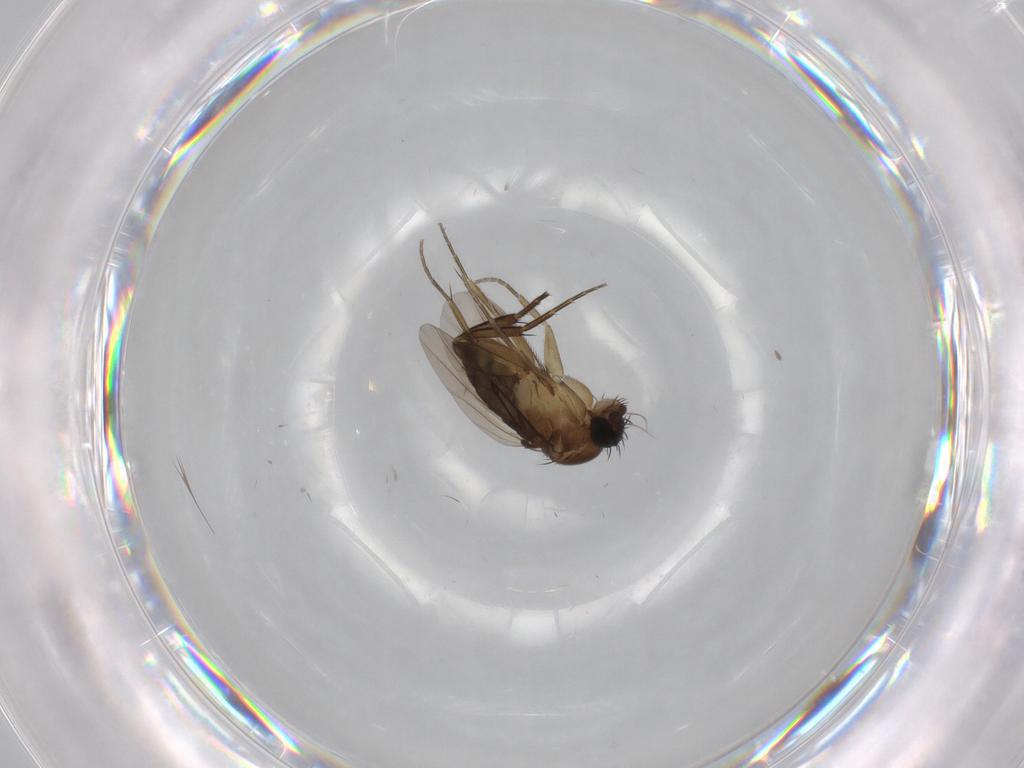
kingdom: Animalia
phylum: Arthropoda
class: Insecta
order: Diptera
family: Phoridae
